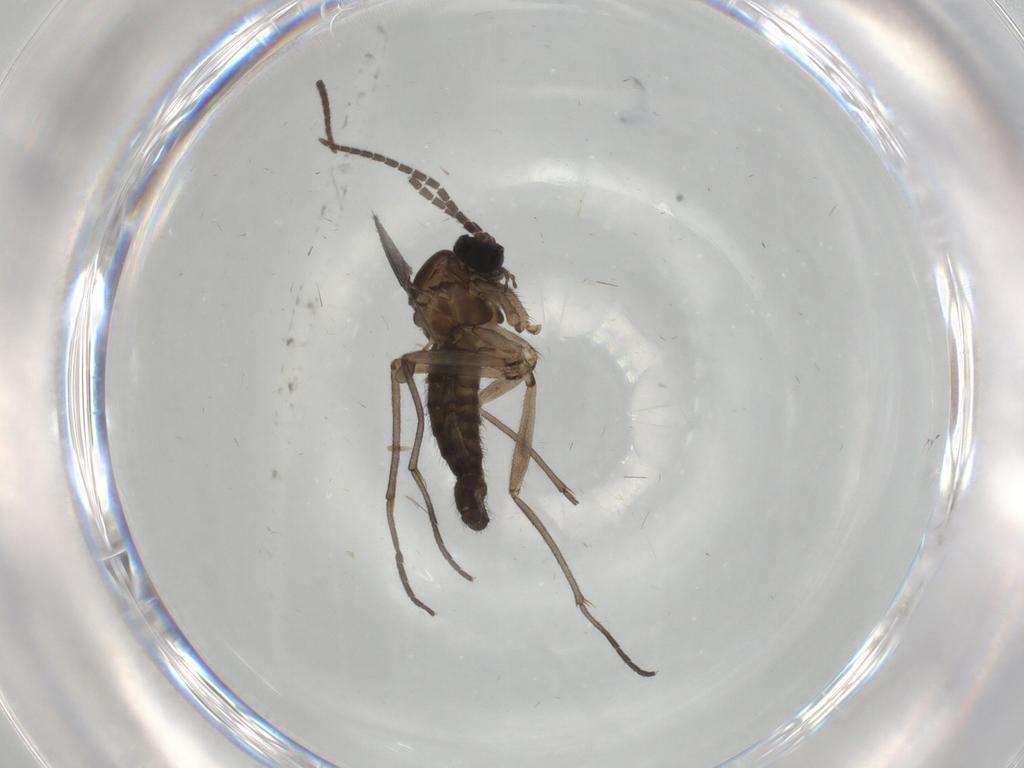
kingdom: Animalia
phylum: Arthropoda
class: Insecta
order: Diptera
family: Sciaridae
